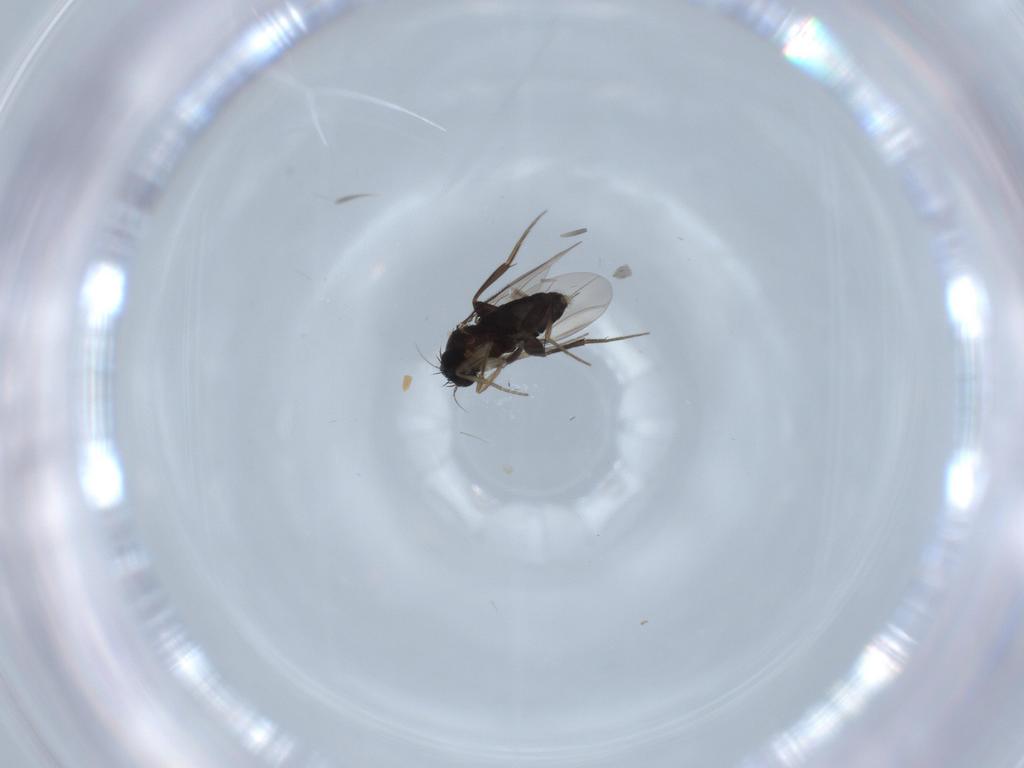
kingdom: Animalia
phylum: Arthropoda
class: Insecta
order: Diptera
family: Phoridae
